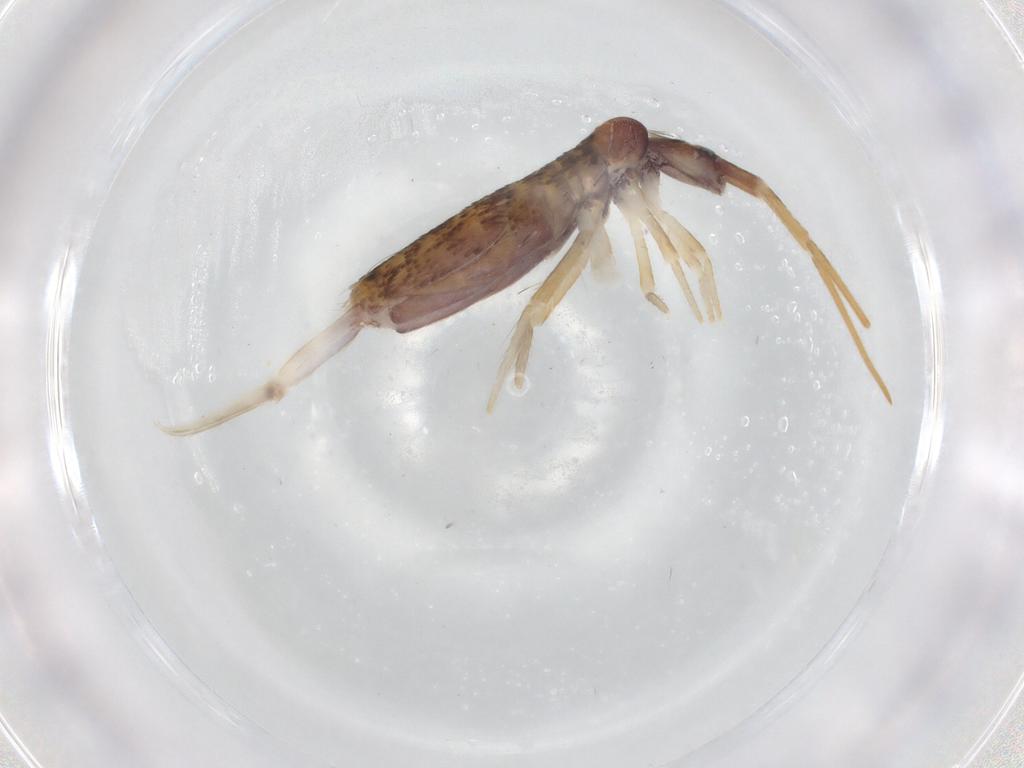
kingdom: Animalia
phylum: Arthropoda
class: Collembola
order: Entomobryomorpha
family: Entomobryidae
